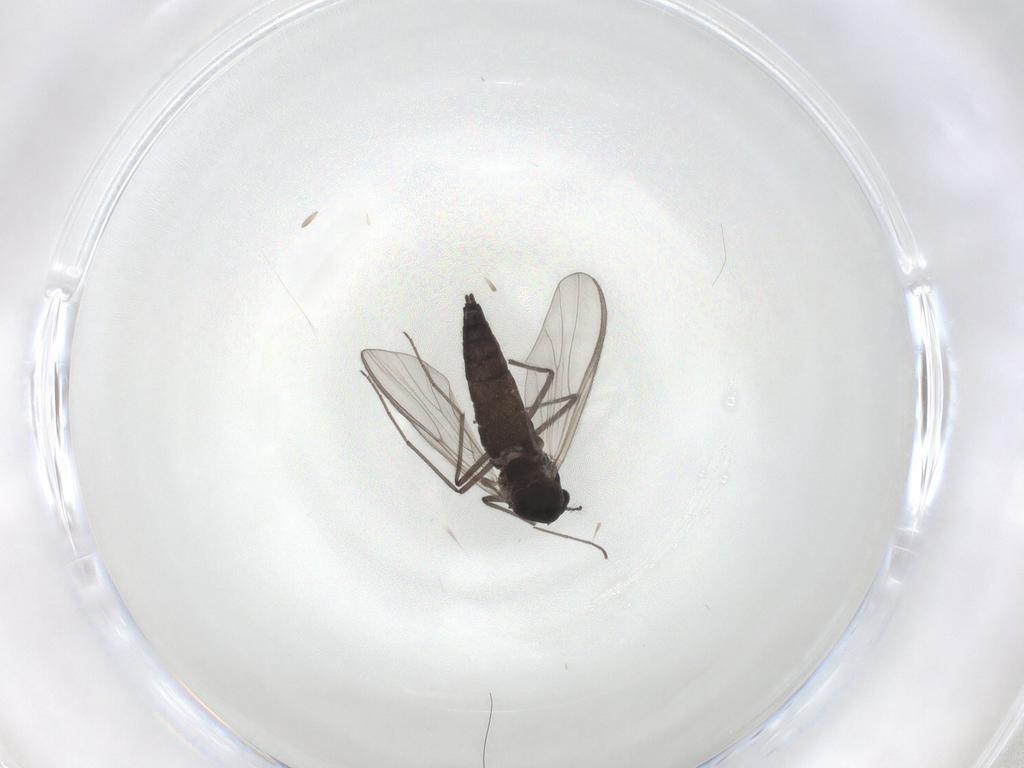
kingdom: Animalia
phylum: Arthropoda
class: Insecta
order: Diptera
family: Chironomidae
